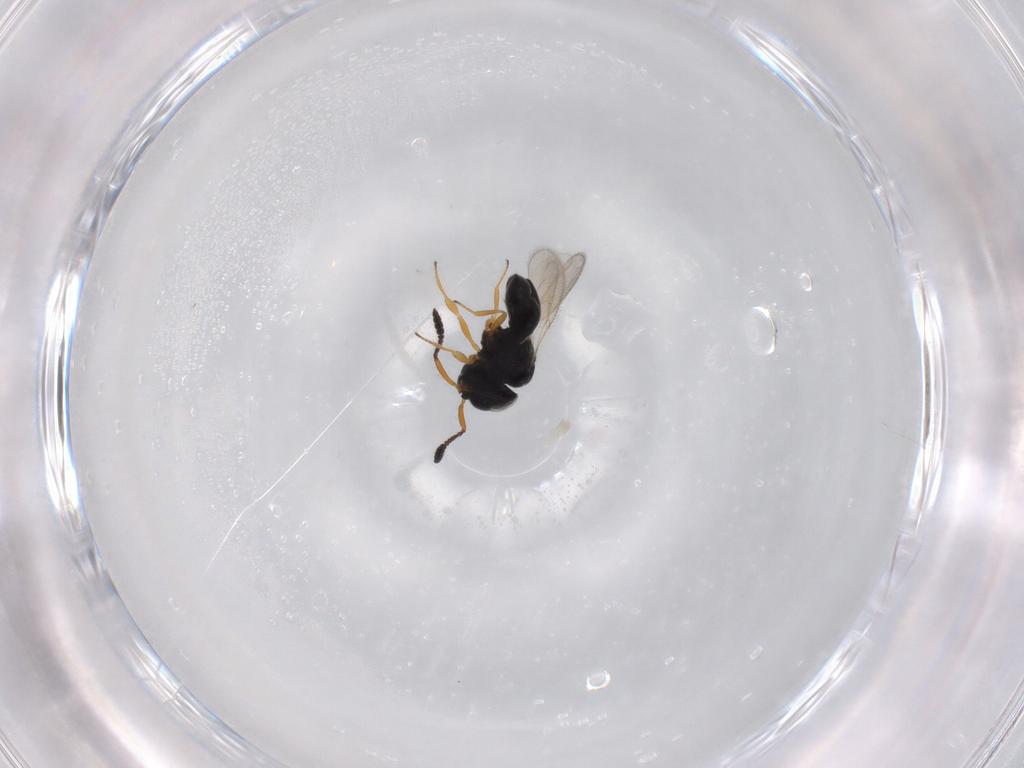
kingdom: Animalia
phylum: Arthropoda
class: Insecta
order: Hymenoptera
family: Scelionidae
